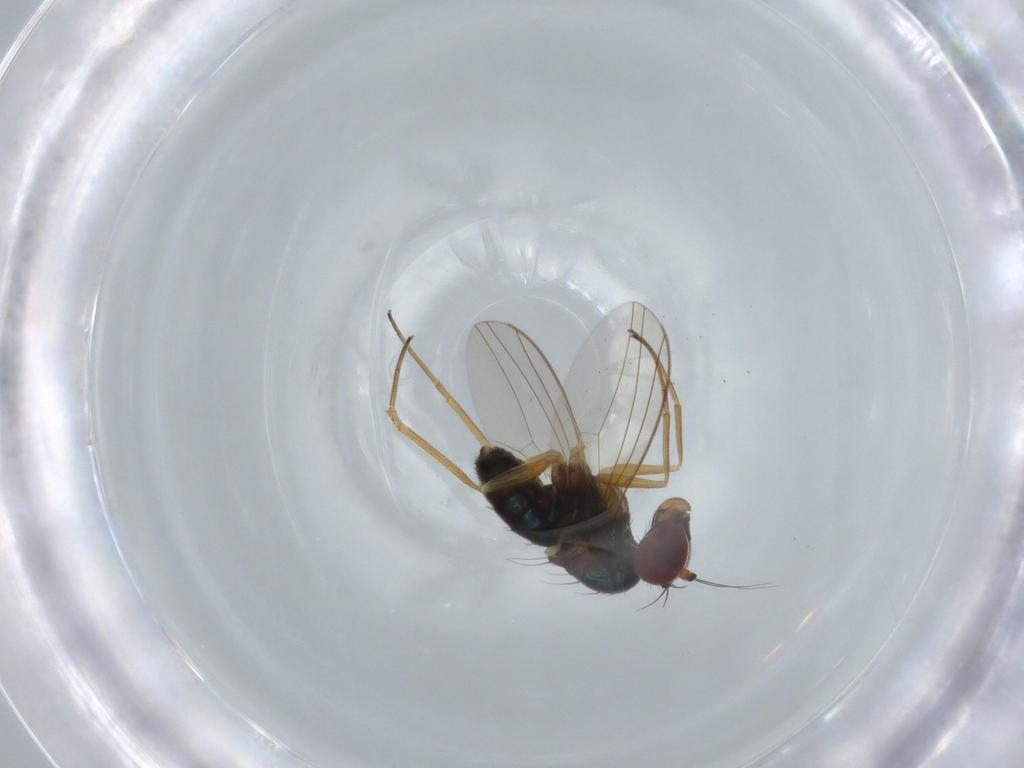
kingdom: Animalia
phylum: Arthropoda
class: Insecta
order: Diptera
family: Dolichopodidae
